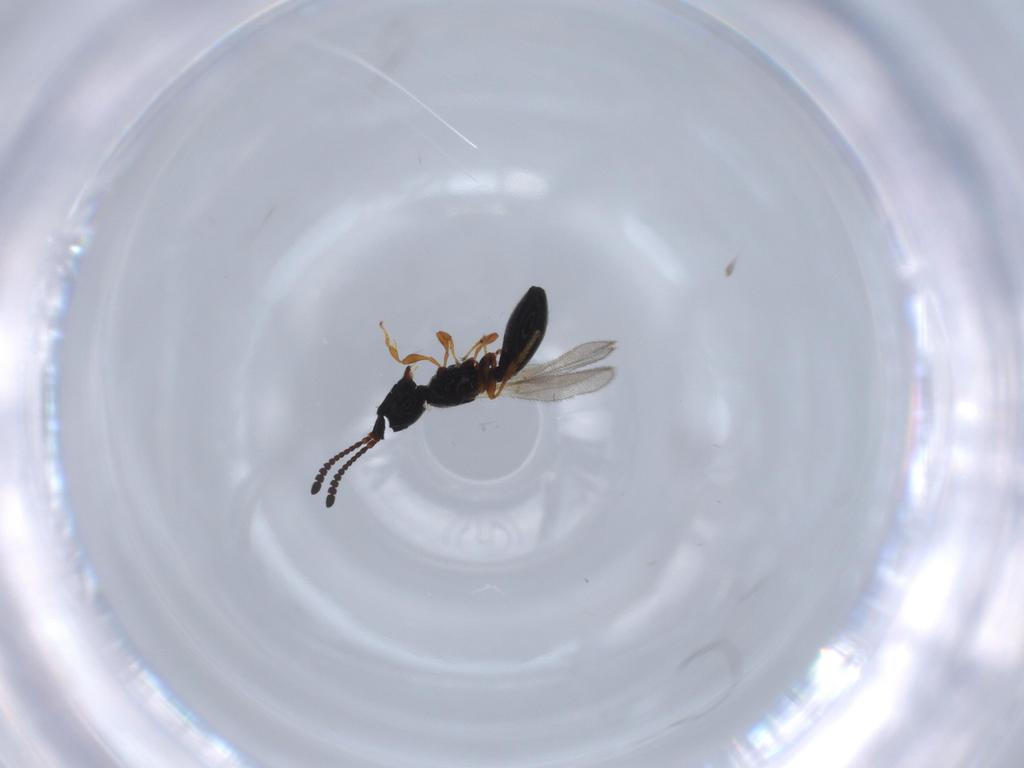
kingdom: Animalia
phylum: Arthropoda
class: Insecta
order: Hymenoptera
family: Diapriidae
